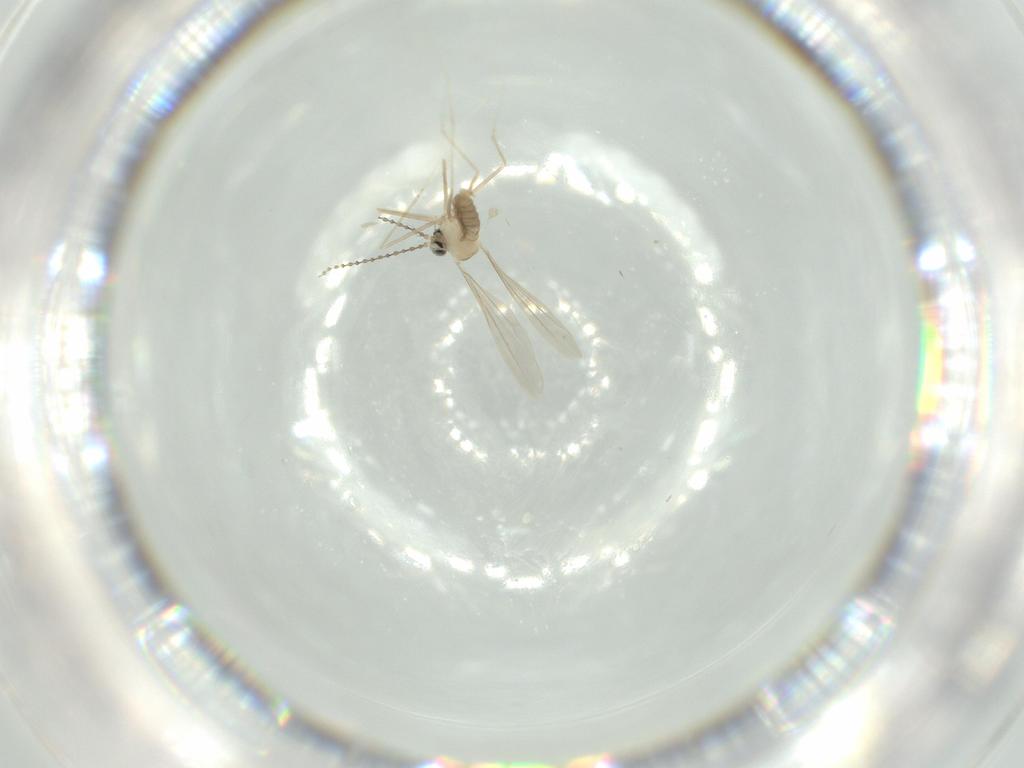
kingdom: Animalia
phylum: Arthropoda
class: Insecta
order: Diptera
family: Cecidomyiidae
